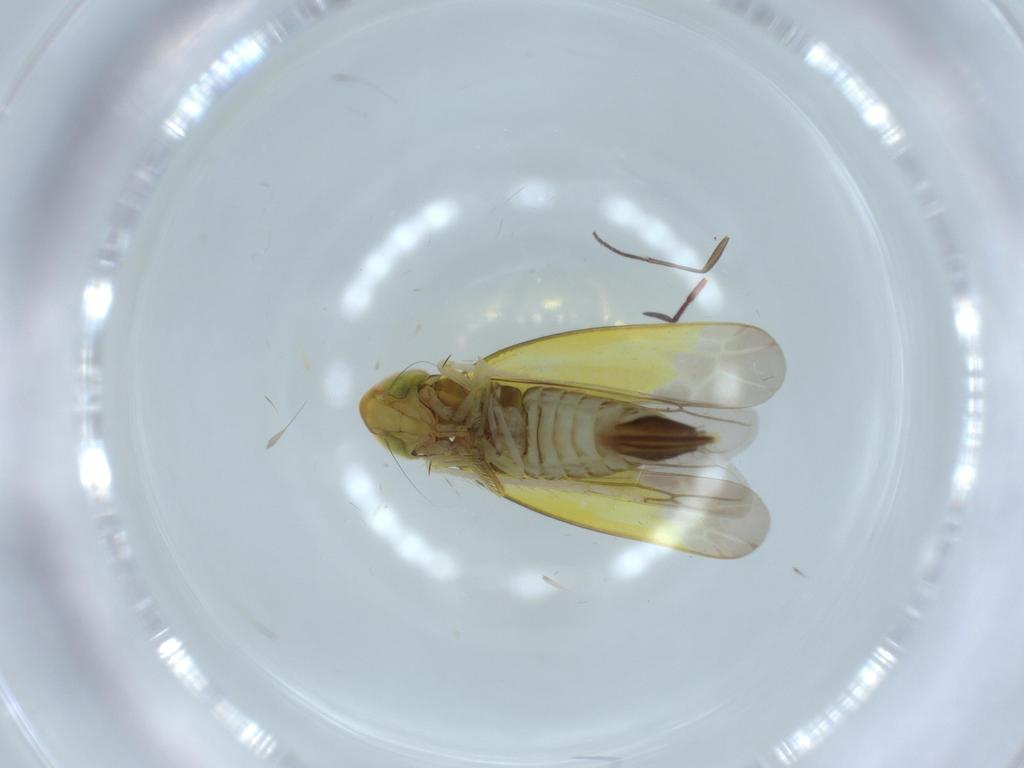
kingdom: Animalia
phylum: Arthropoda
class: Insecta
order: Hemiptera
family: Cicadellidae
